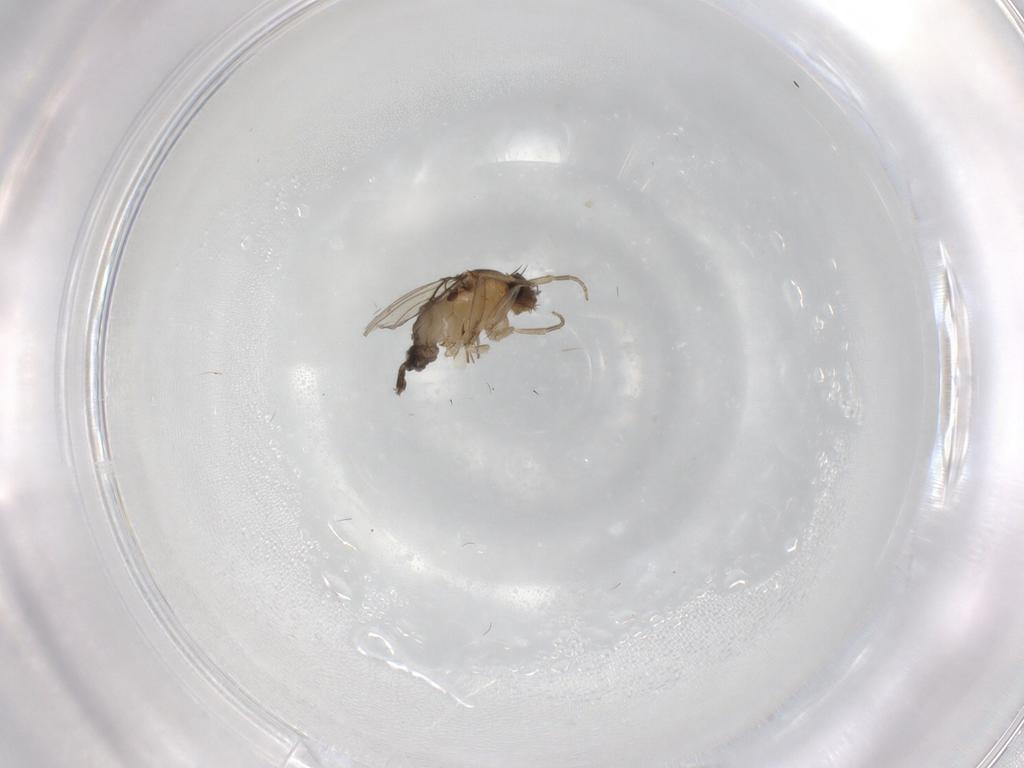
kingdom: Animalia
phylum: Arthropoda
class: Insecta
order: Diptera
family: Phoridae
